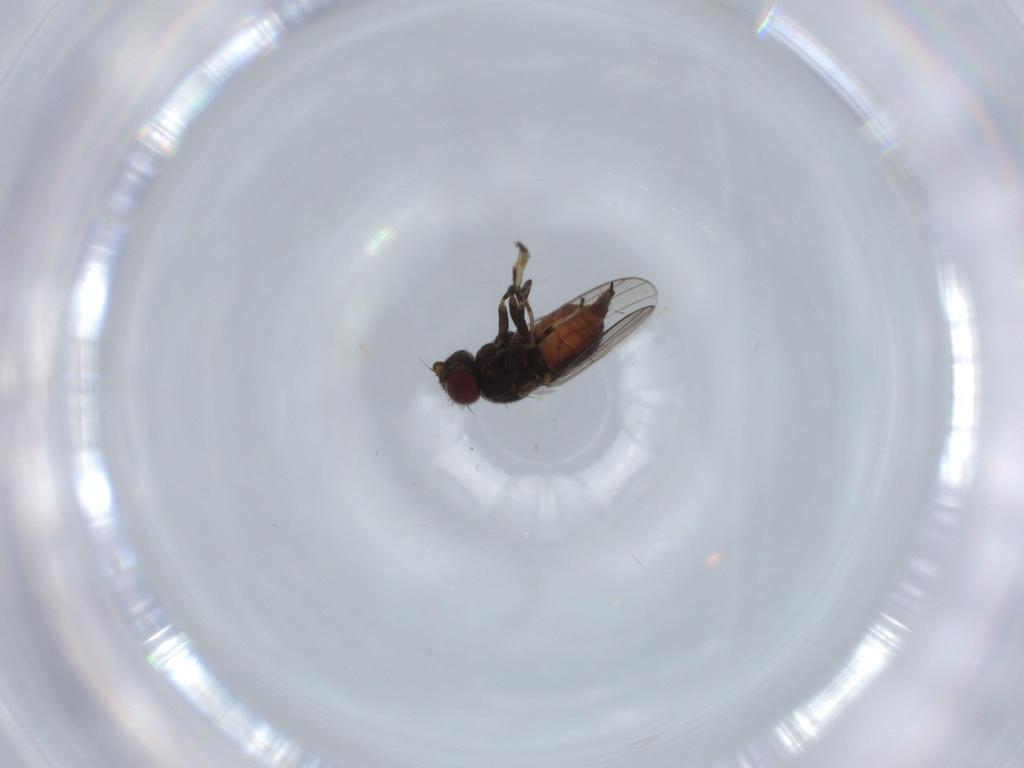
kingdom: Animalia
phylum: Arthropoda
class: Insecta
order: Diptera
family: Chloropidae
